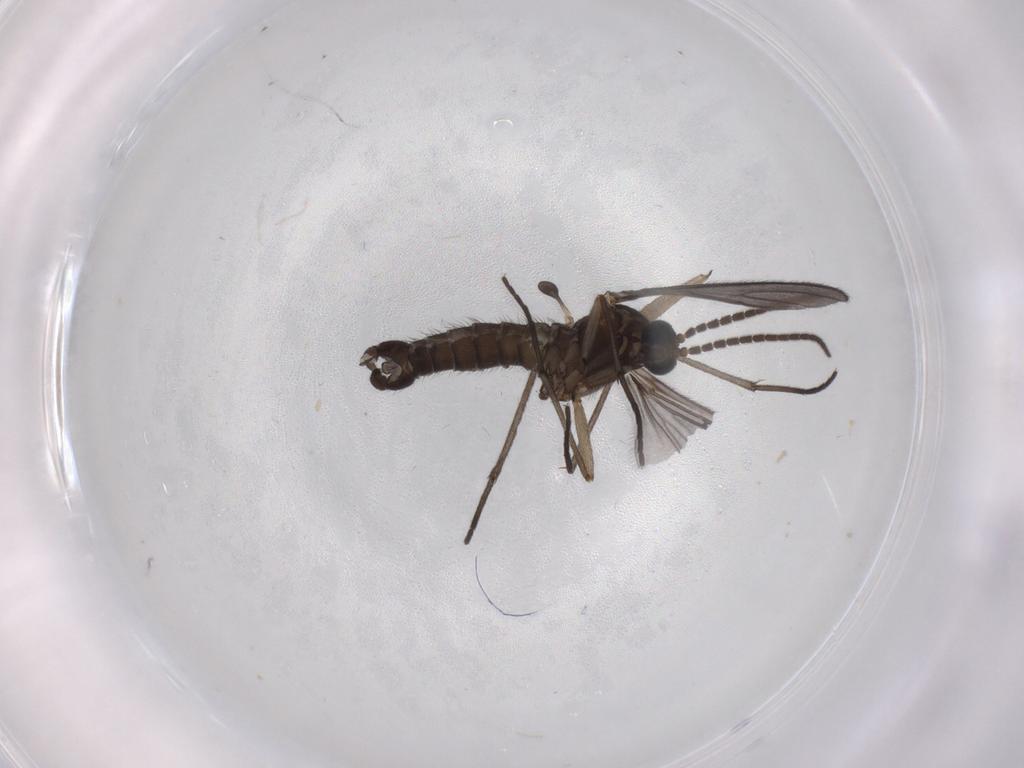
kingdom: Animalia
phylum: Arthropoda
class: Insecta
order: Diptera
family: Sciaridae
